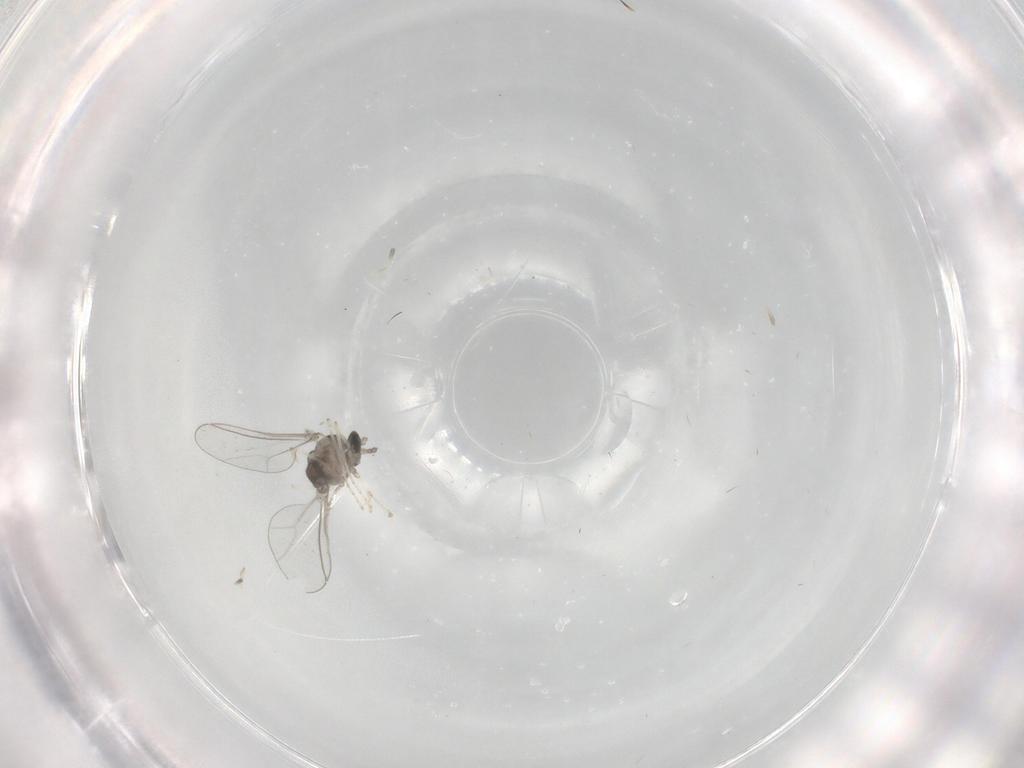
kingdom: Animalia
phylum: Arthropoda
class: Insecta
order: Diptera
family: Cecidomyiidae
